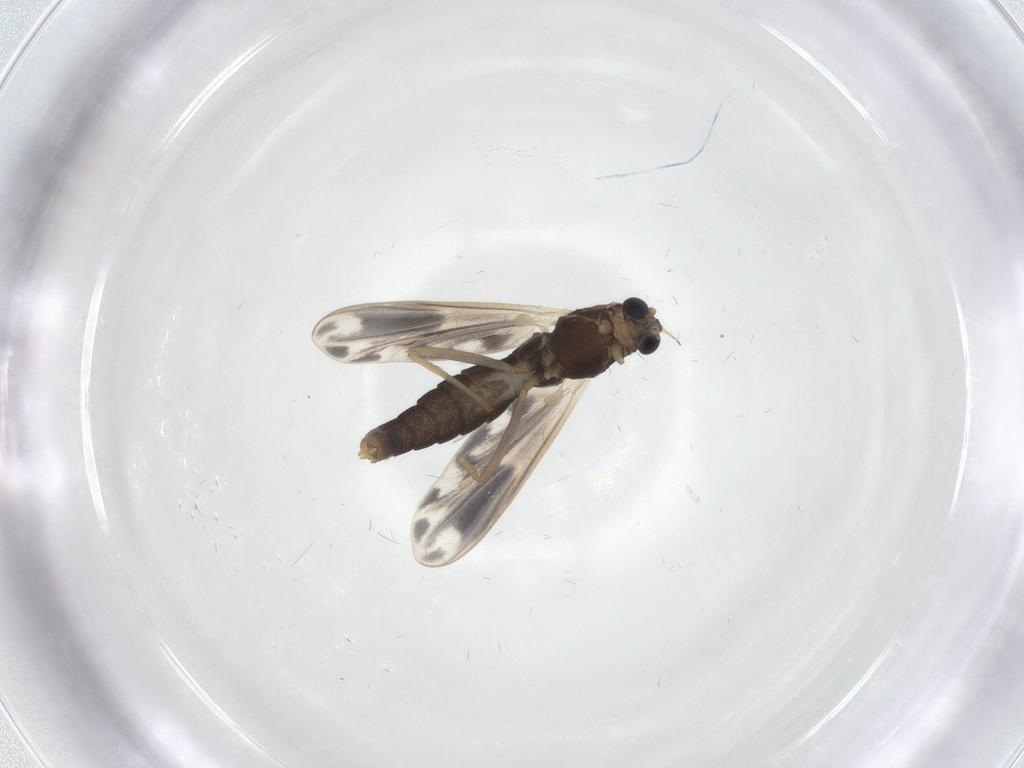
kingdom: Animalia
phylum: Arthropoda
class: Insecta
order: Diptera
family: Chironomidae
